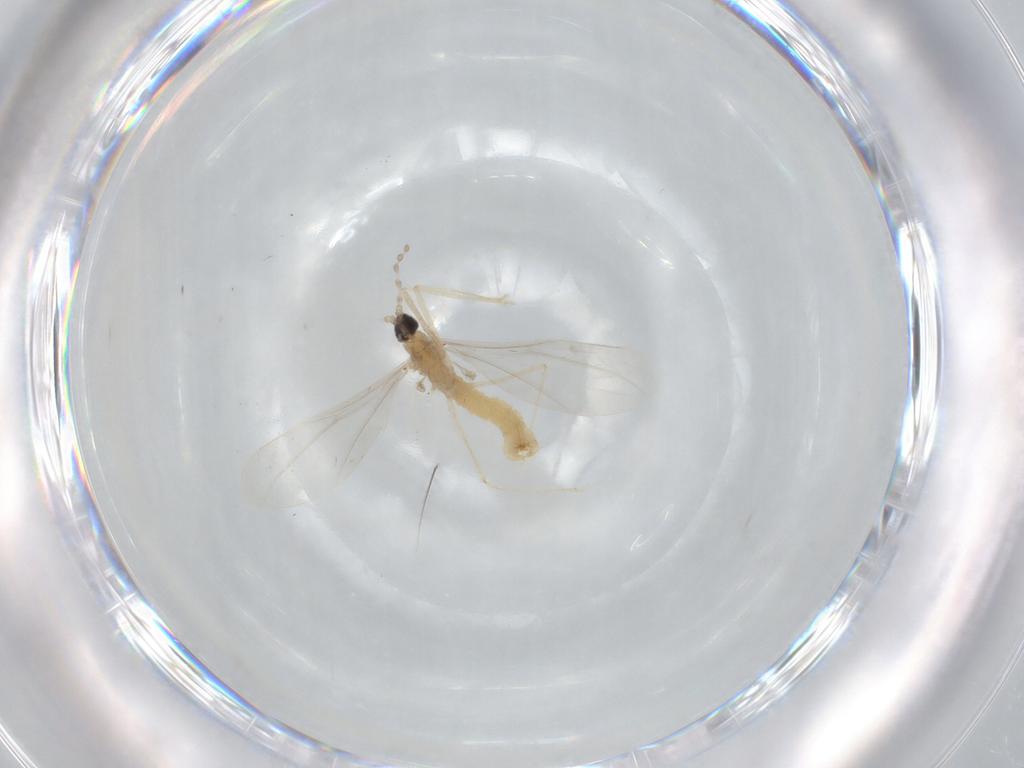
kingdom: Animalia
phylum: Arthropoda
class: Insecta
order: Diptera
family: Cecidomyiidae
